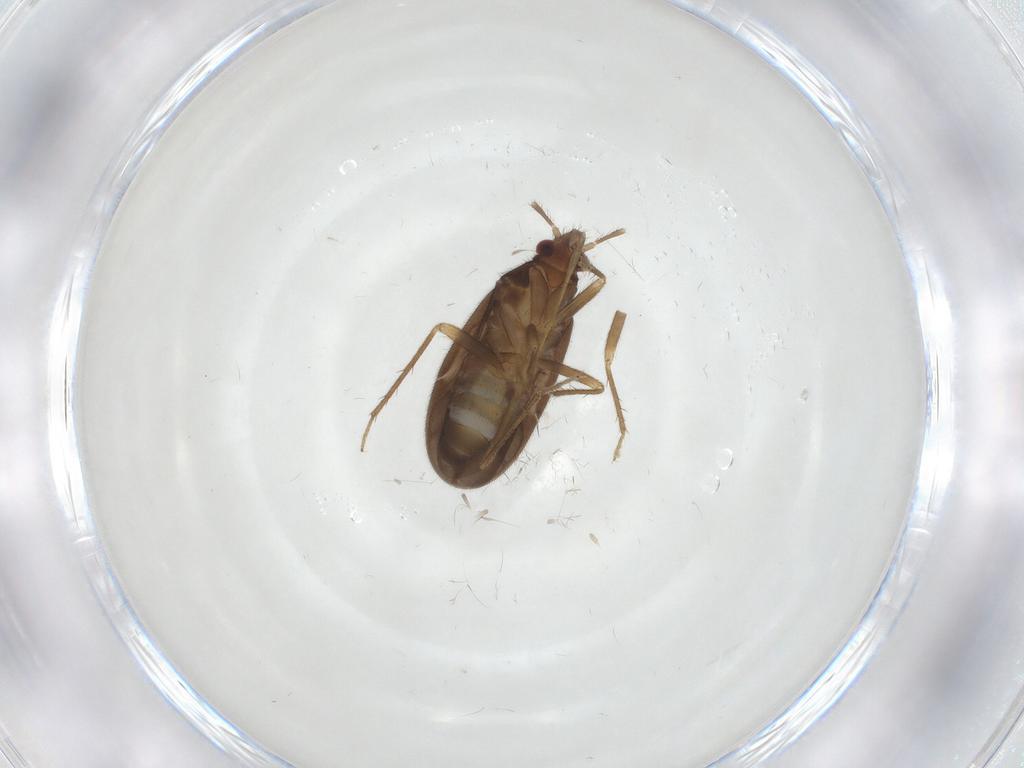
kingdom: Animalia
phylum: Arthropoda
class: Insecta
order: Hemiptera
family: Ceratocombidae
